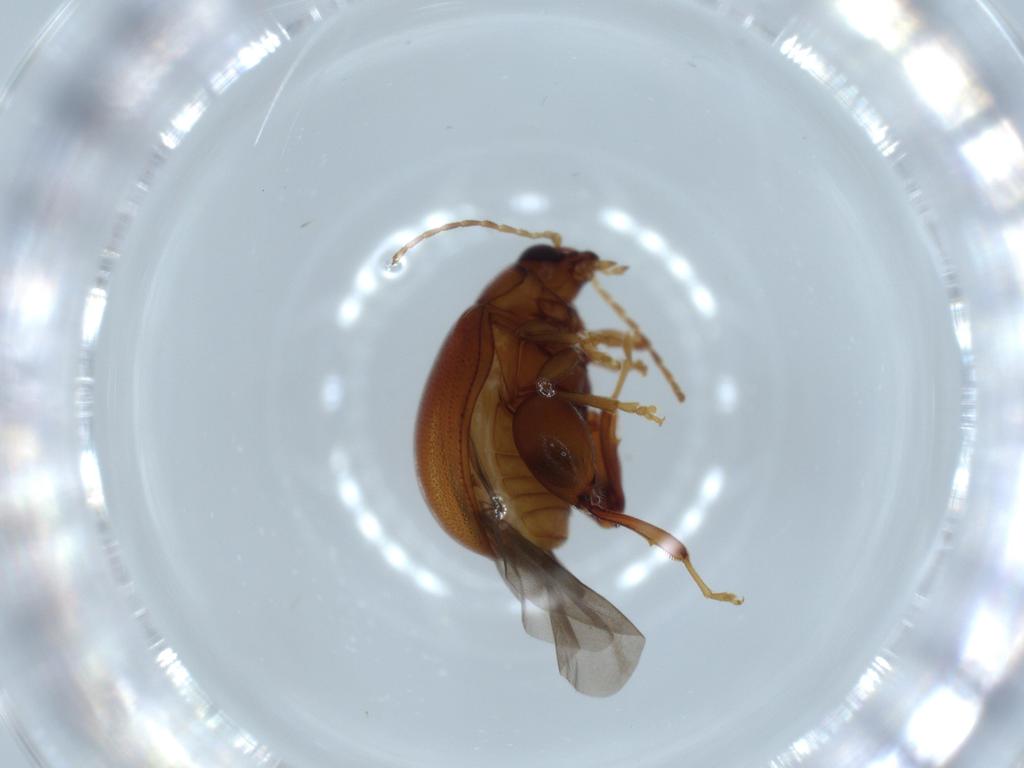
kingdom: Animalia
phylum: Arthropoda
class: Insecta
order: Coleoptera
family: Chrysomelidae
